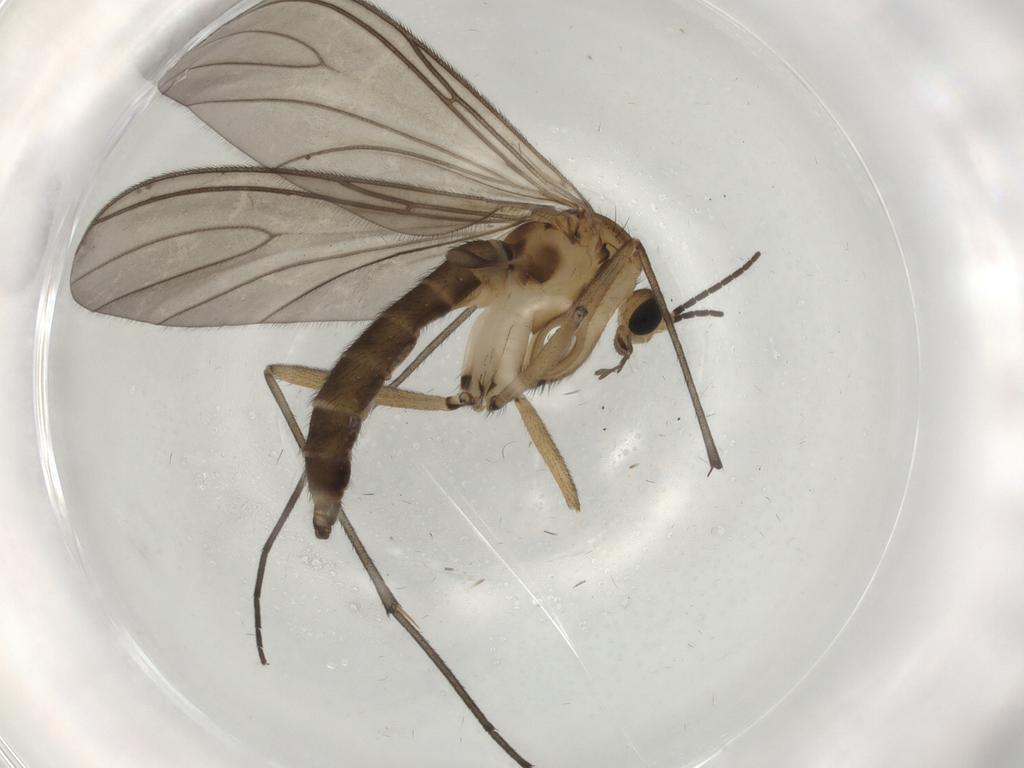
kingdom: Animalia
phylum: Arthropoda
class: Insecta
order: Diptera
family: Sciaridae
